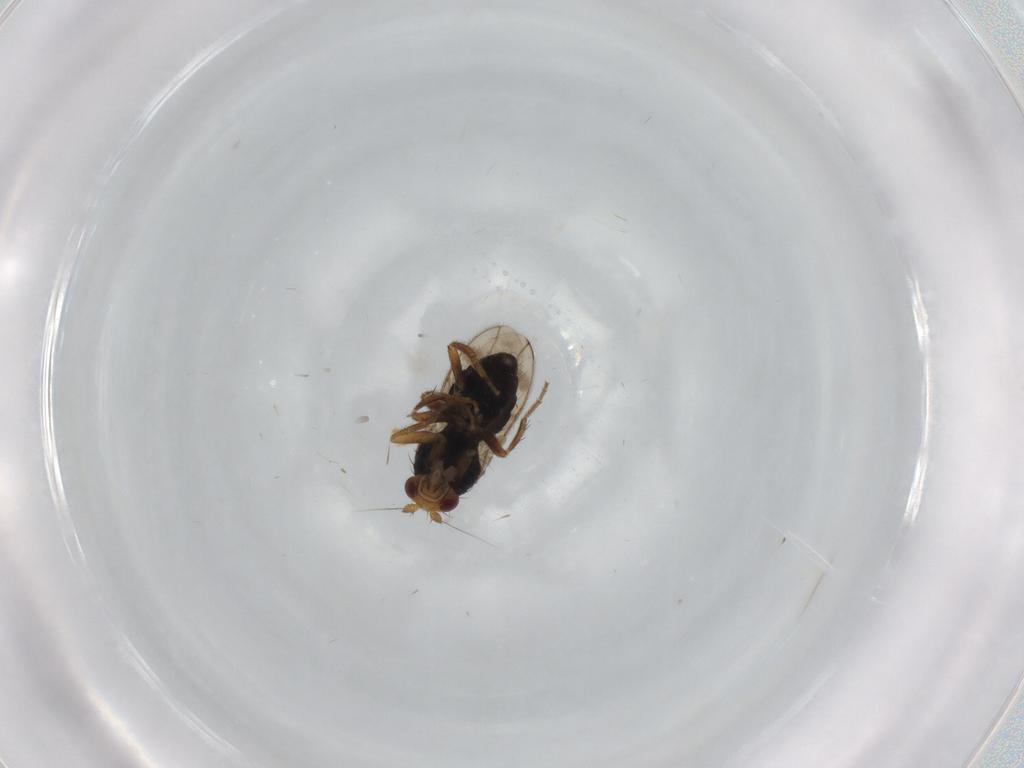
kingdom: Animalia
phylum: Arthropoda
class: Insecta
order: Diptera
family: Sphaeroceridae
